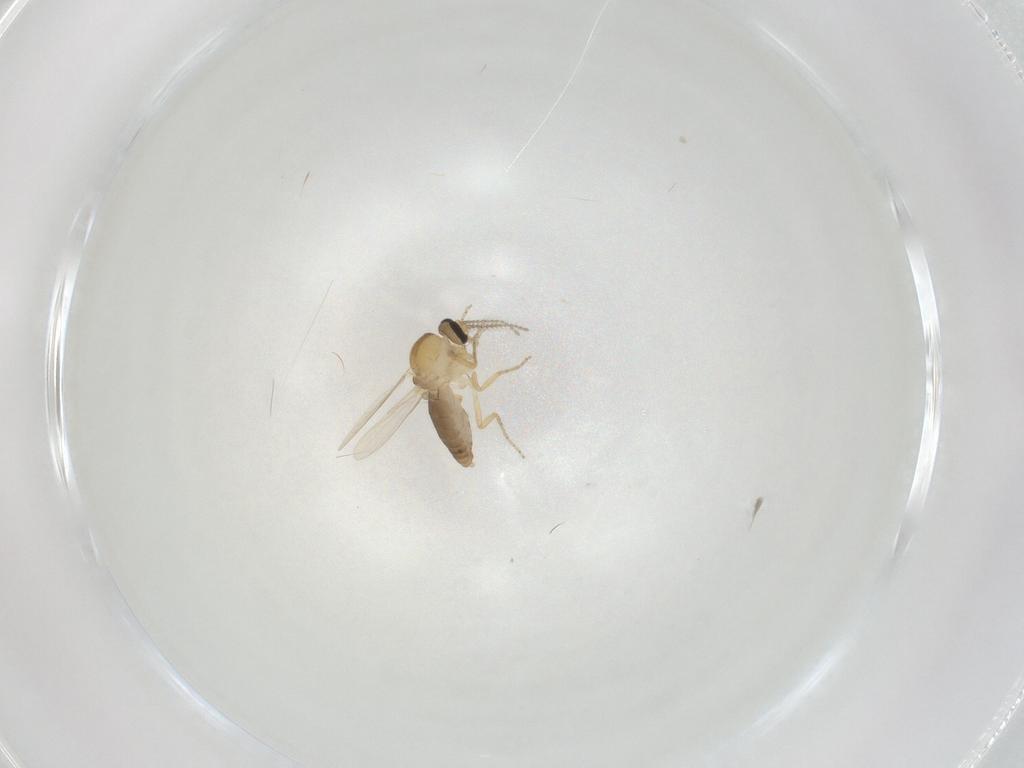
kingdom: Animalia
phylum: Arthropoda
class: Insecta
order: Diptera
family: Ceratopogonidae
